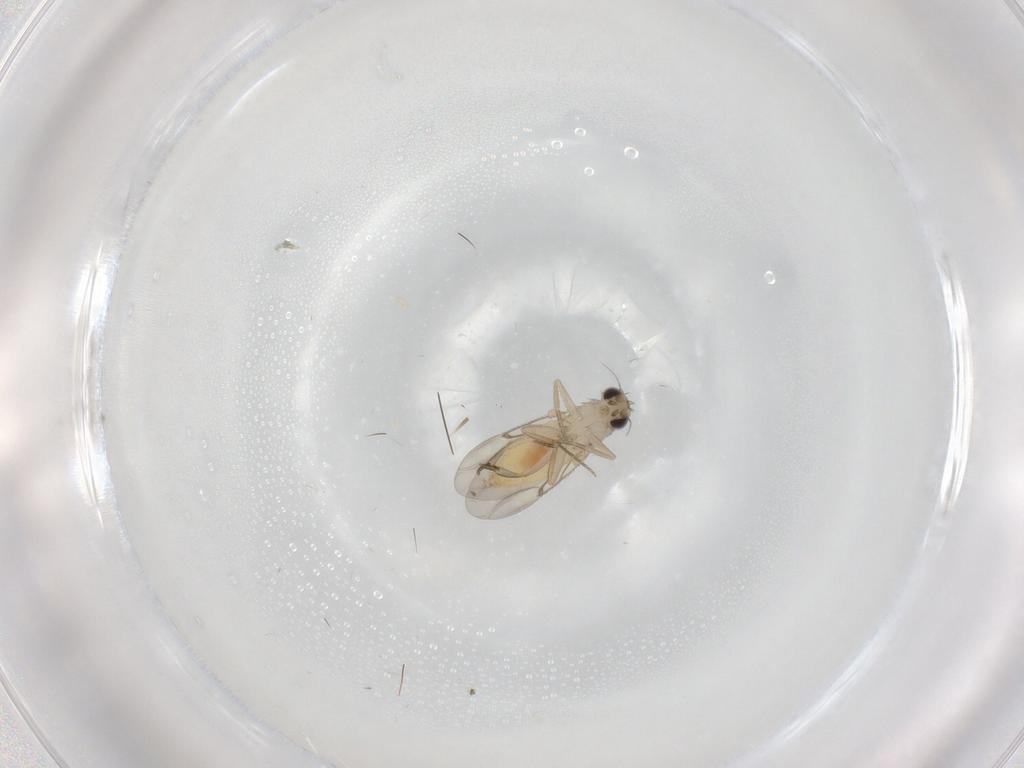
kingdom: Animalia
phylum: Arthropoda
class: Insecta
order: Diptera
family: Phoridae
